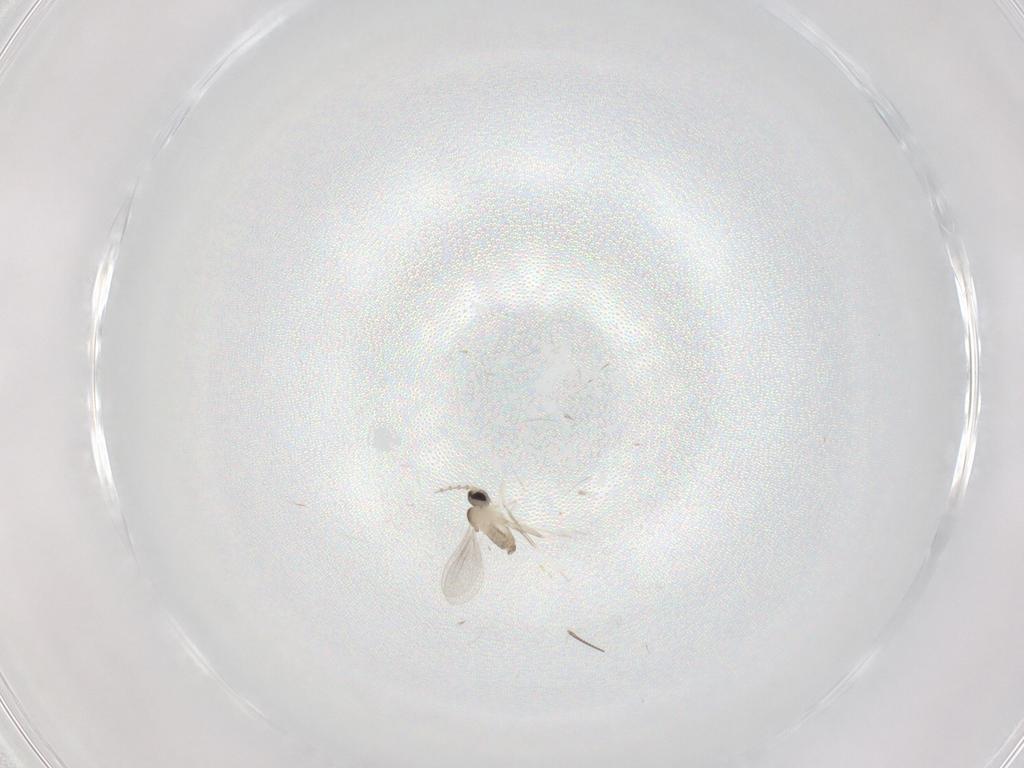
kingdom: Animalia
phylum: Arthropoda
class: Insecta
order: Diptera
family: Cecidomyiidae
